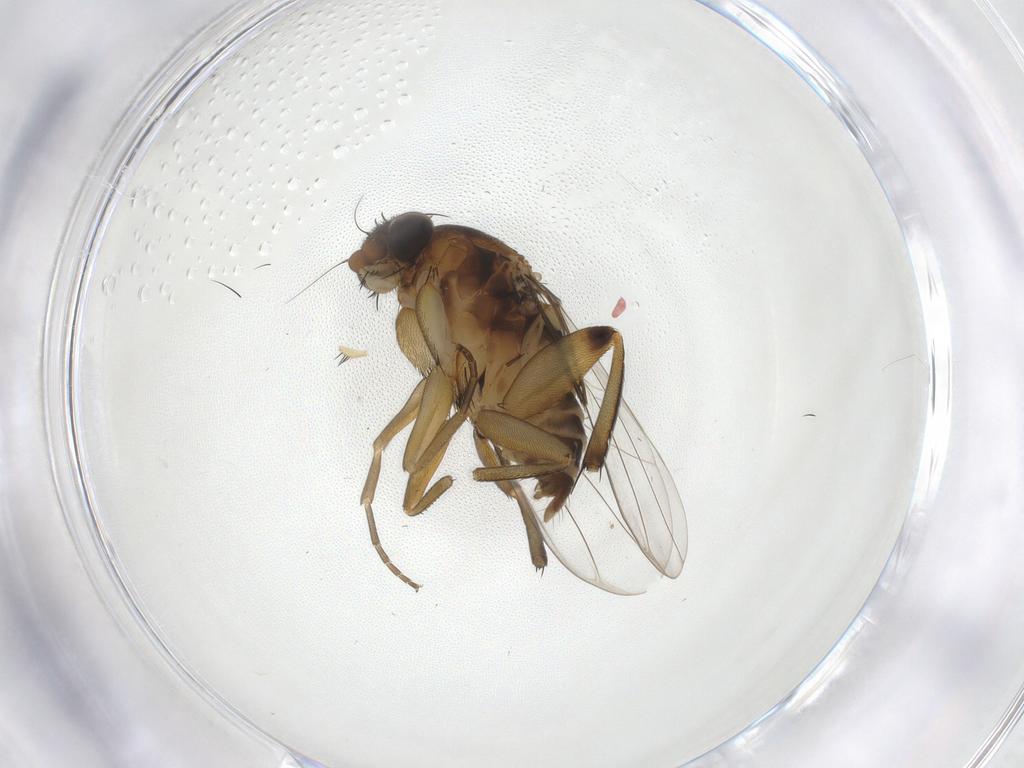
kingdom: Animalia
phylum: Arthropoda
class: Insecta
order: Diptera
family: Phoridae
